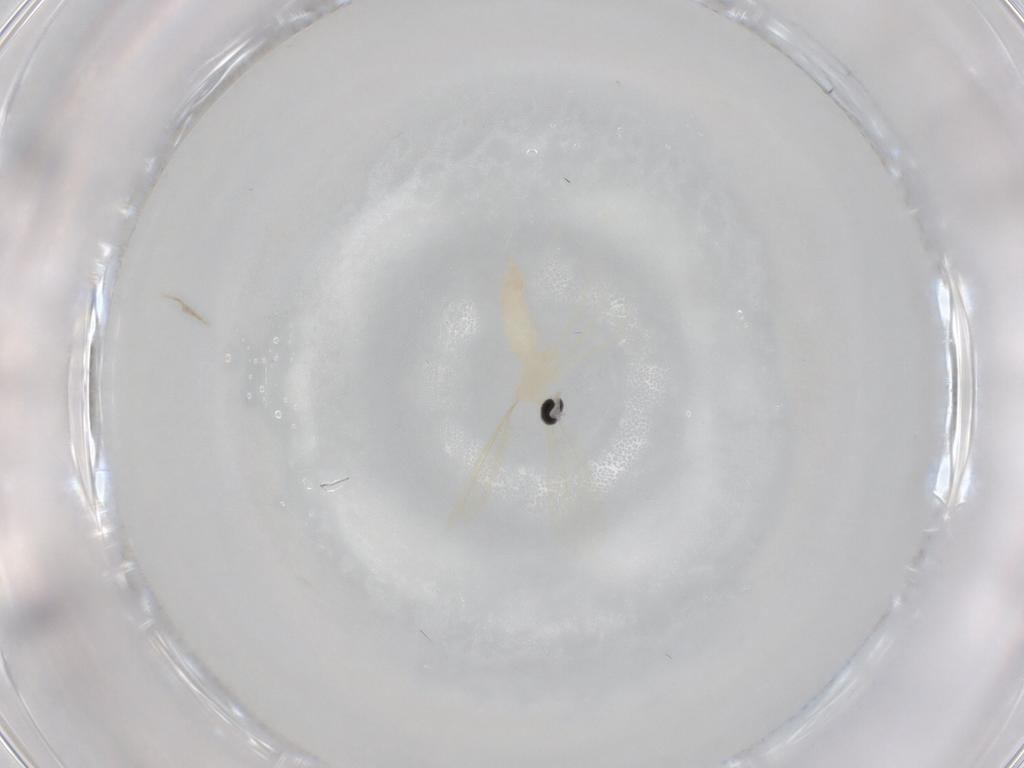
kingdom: Animalia
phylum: Arthropoda
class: Insecta
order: Diptera
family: Cecidomyiidae
